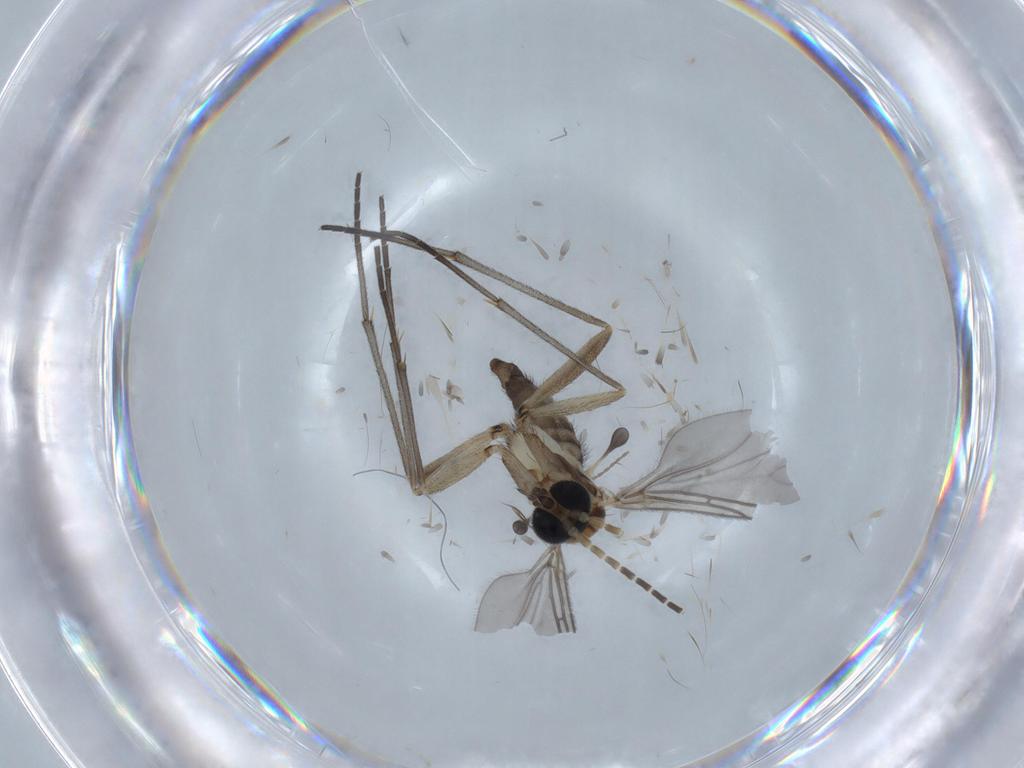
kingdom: Animalia
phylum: Arthropoda
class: Insecta
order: Diptera
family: Sciaridae
